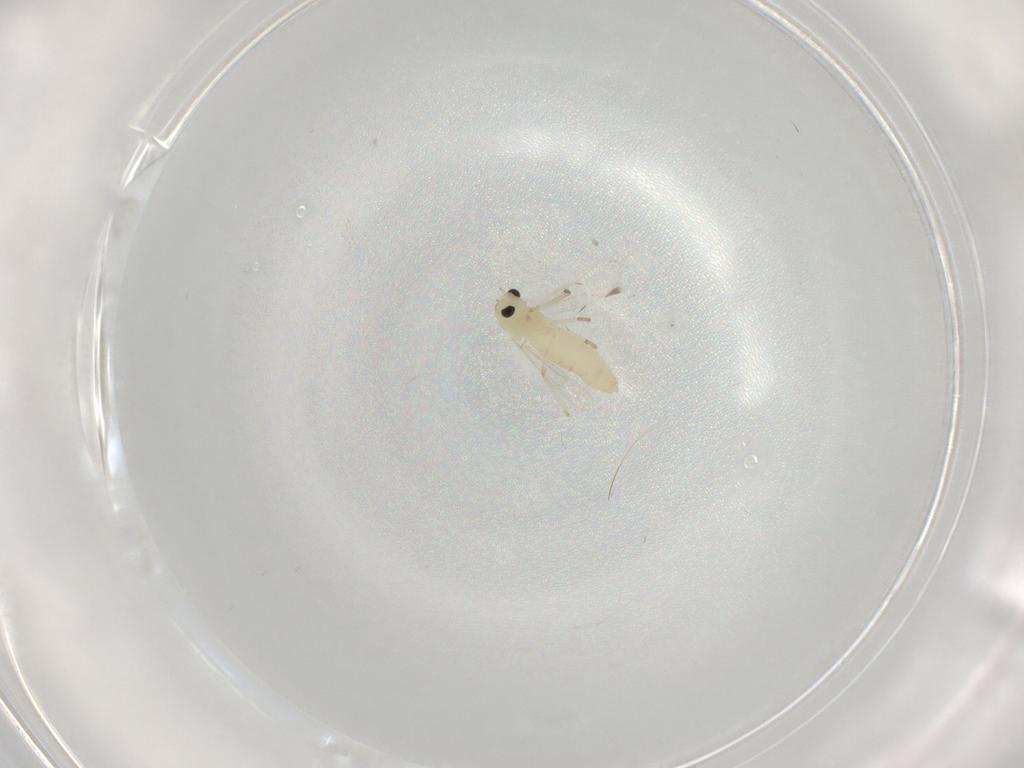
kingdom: Animalia
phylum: Arthropoda
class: Insecta
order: Diptera
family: Chironomidae
